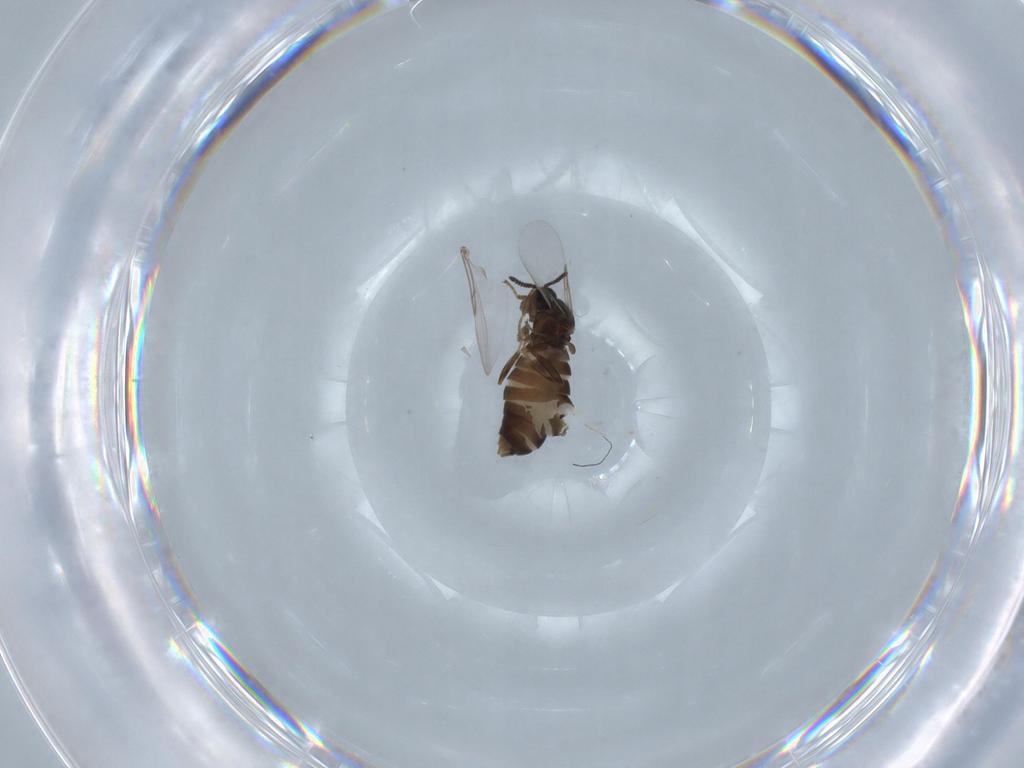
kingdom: Animalia
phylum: Arthropoda
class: Insecta
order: Diptera
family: Scatopsidae
